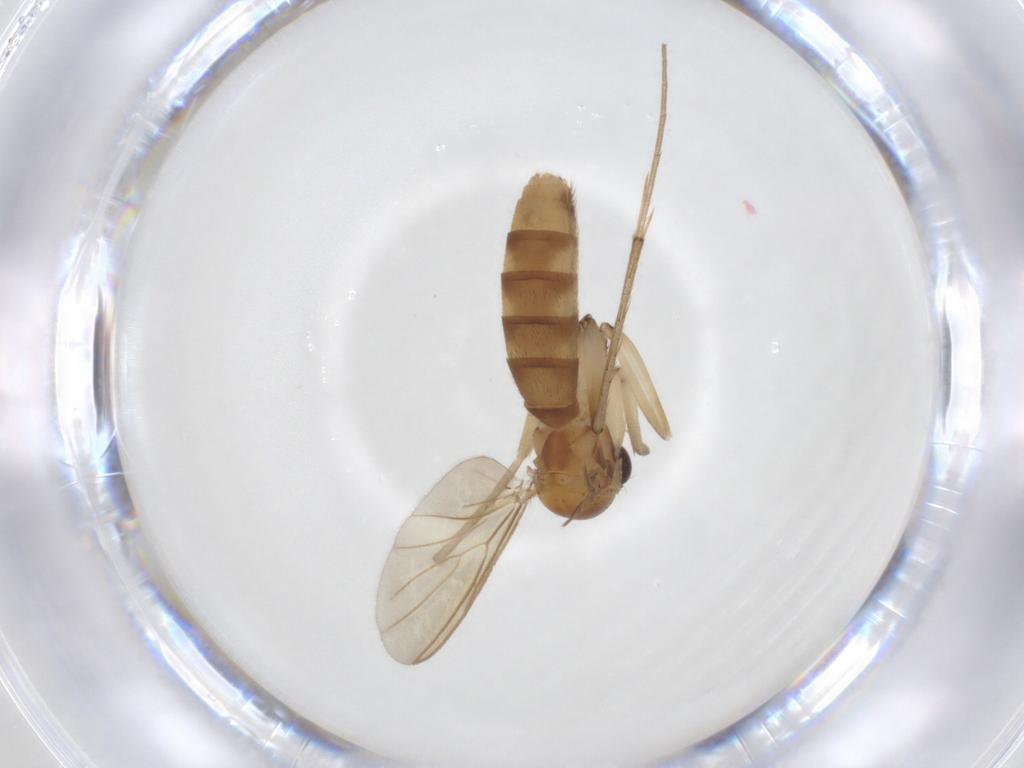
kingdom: Animalia
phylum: Arthropoda
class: Insecta
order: Diptera
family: Mycetophilidae
